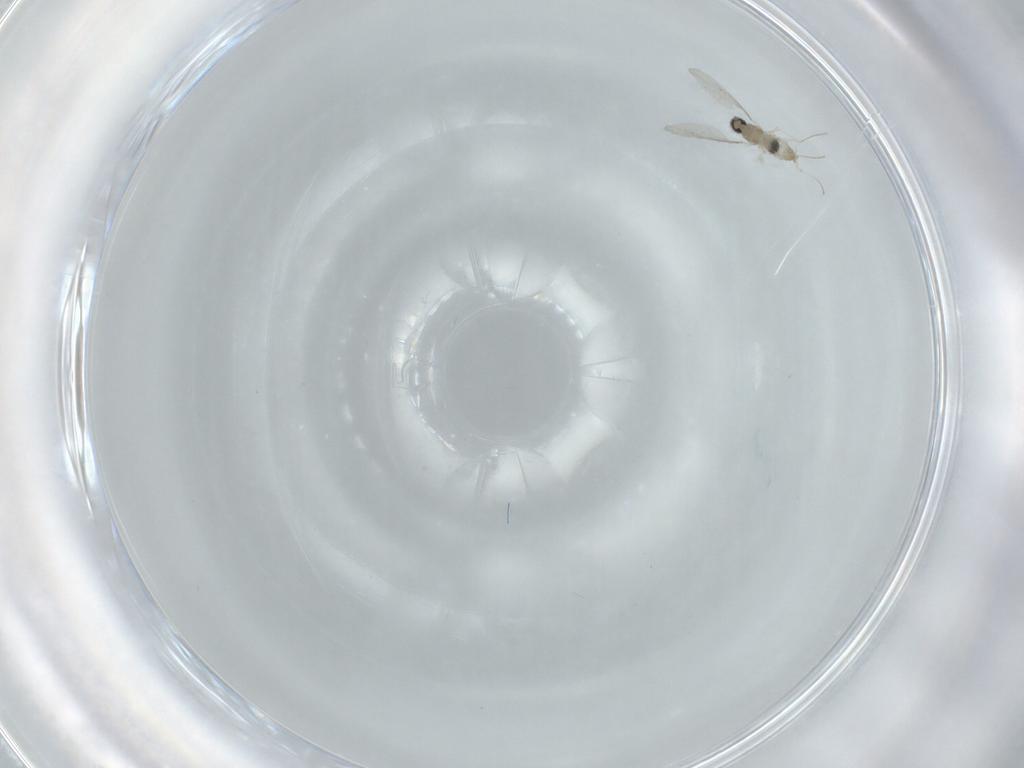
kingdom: Animalia
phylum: Arthropoda
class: Insecta
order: Diptera
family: Cecidomyiidae
